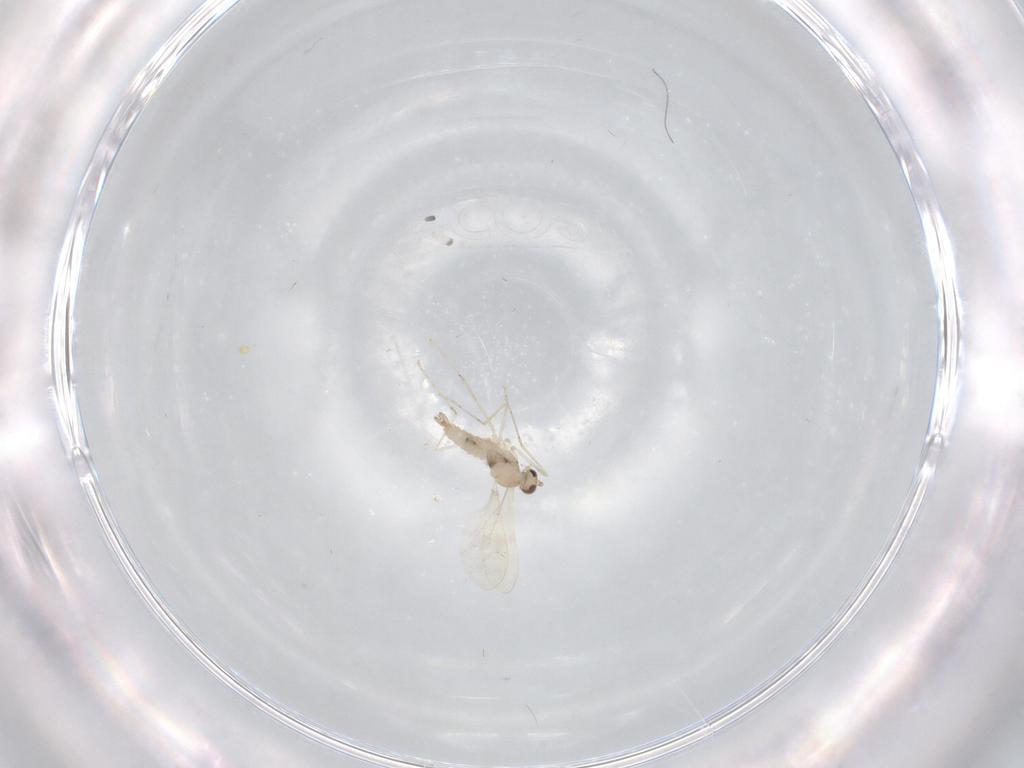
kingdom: Animalia
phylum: Arthropoda
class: Insecta
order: Diptera
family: Cecidomyiidae
